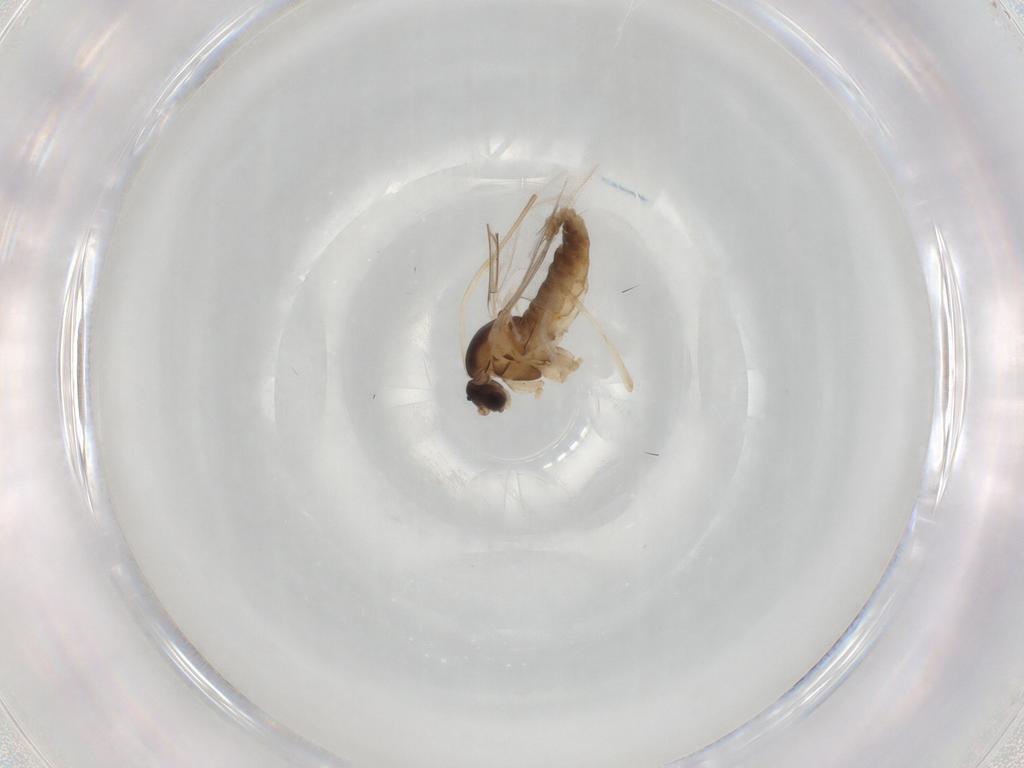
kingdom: Animalia
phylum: Arthropoda
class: Insecta
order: Diptera
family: Cecidomyiidae
